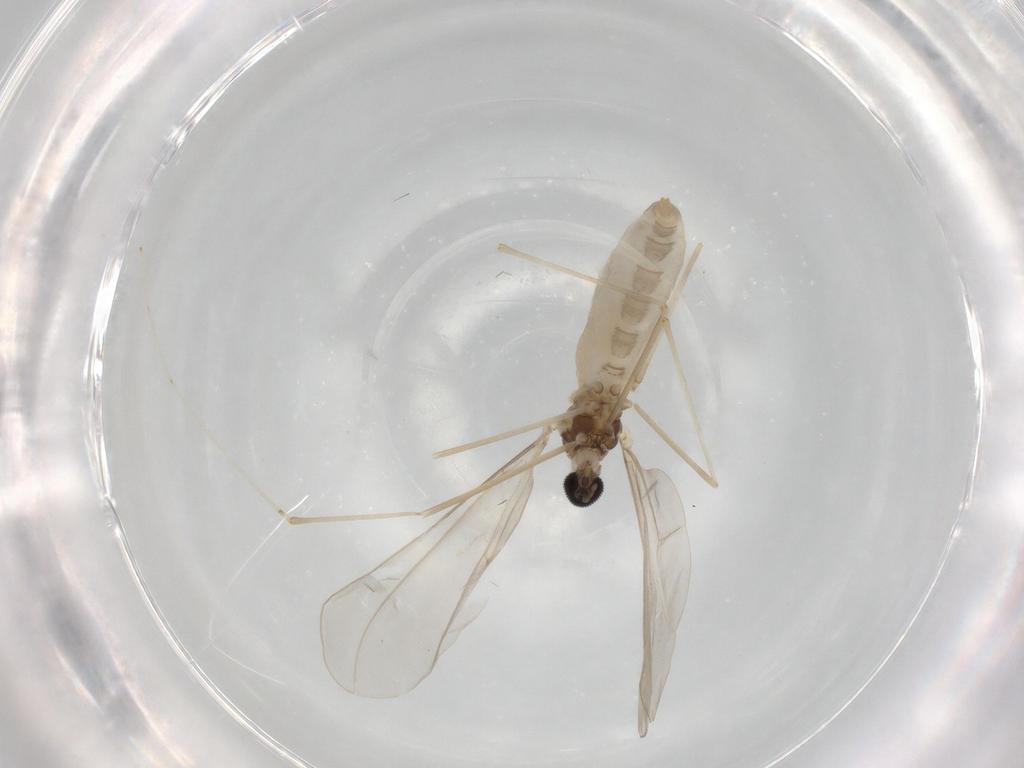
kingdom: Animalia
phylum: Arthropoda
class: Insecta
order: Diptera
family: Cecidomyiidae
